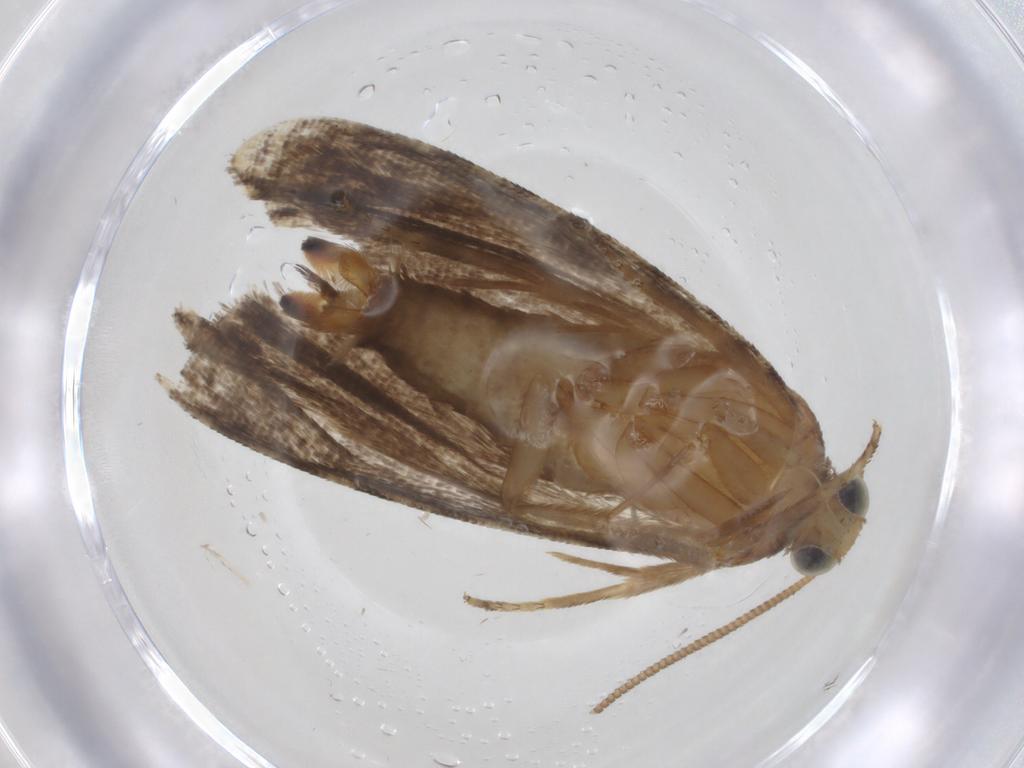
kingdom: Animalia
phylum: Arthropoda
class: Insecta
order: Lepidoptera
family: Tortricidae
